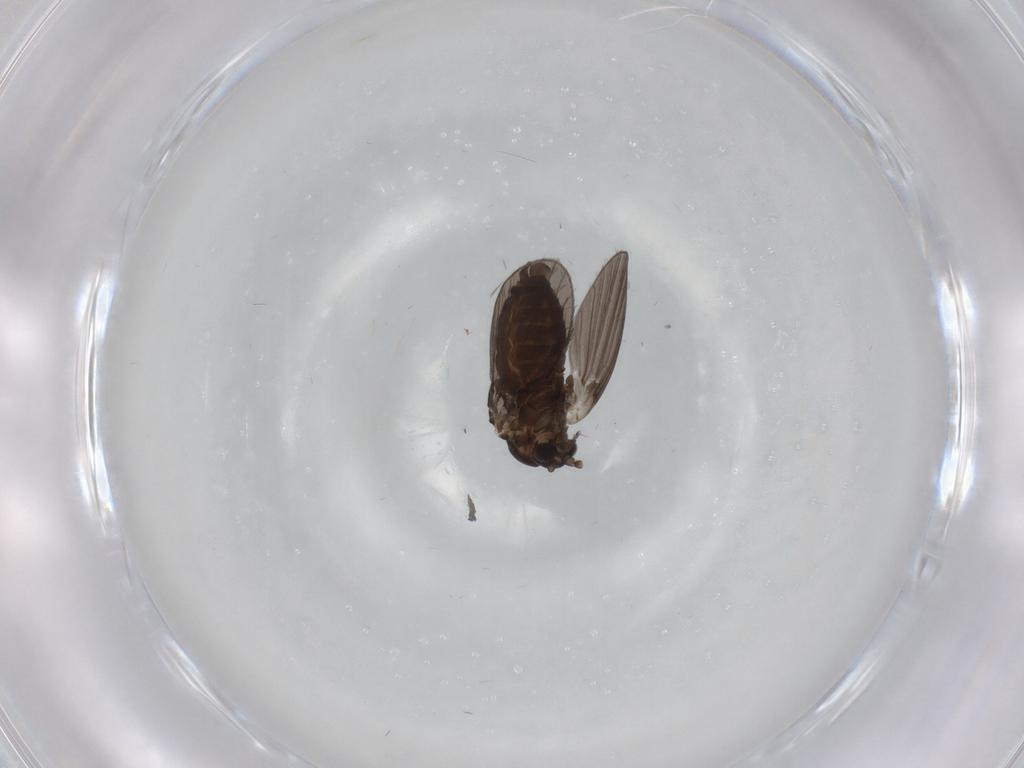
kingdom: Animalia
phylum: Arthropoda
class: Insecta
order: Diptera
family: Psychodidae
